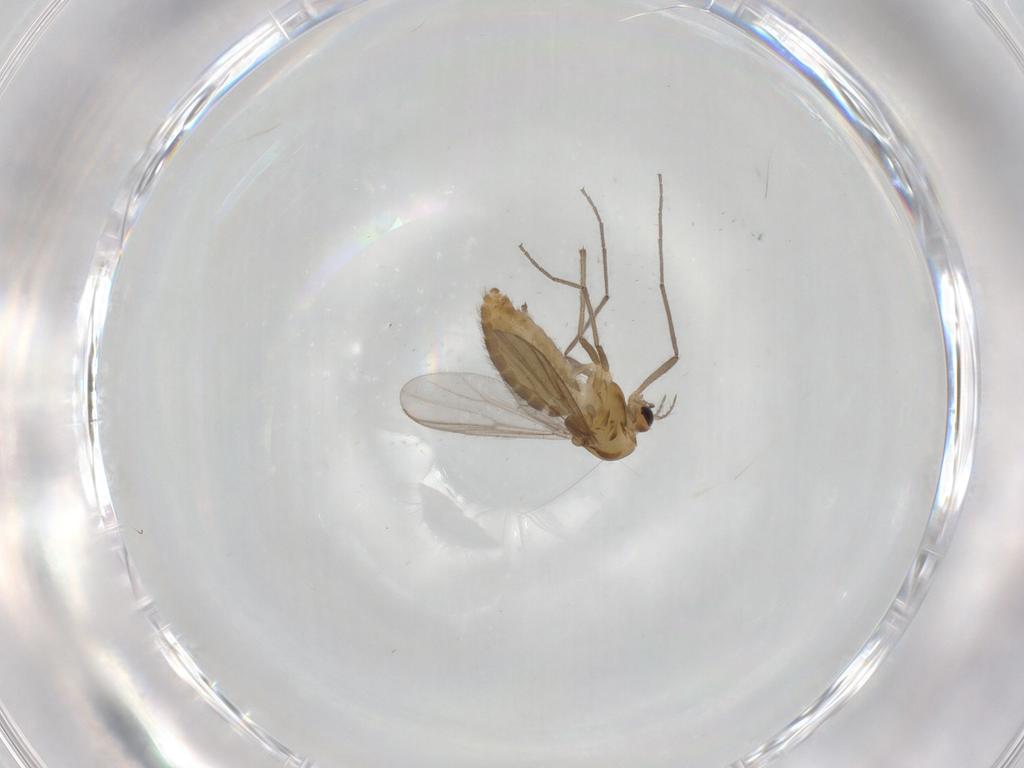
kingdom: Animalia
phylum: Arthropoda
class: Insecta
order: Diptera
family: Chironomidae
